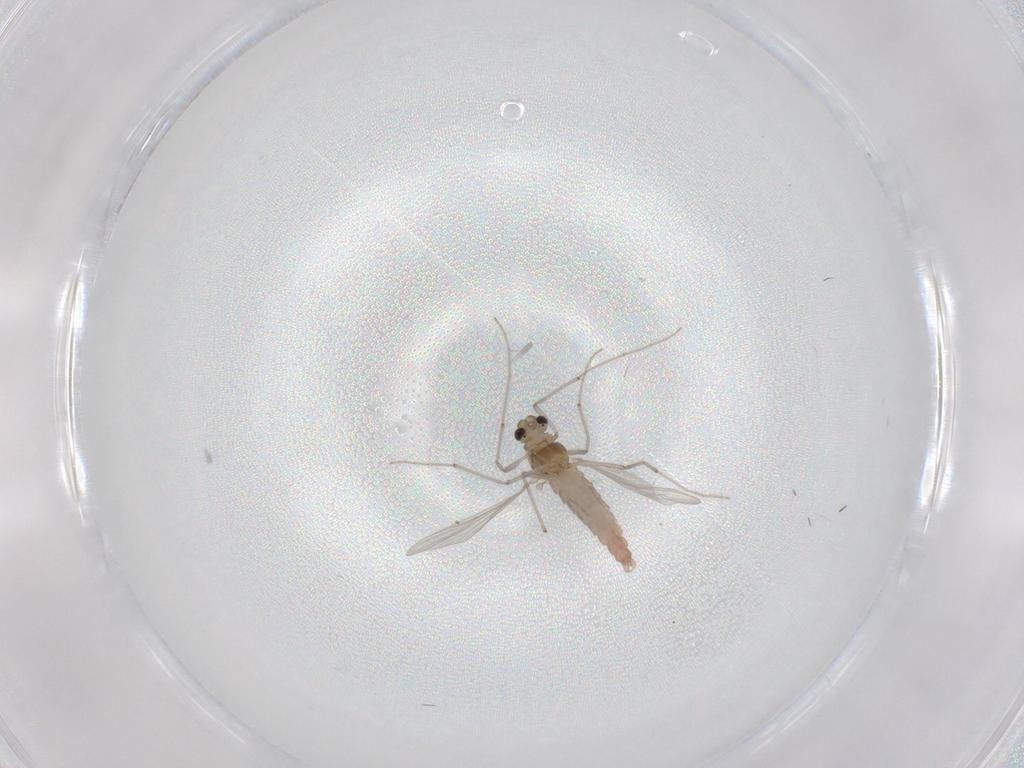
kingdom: Animalia
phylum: Arthropoda
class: Insecta
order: Diptera
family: Chironomidae
